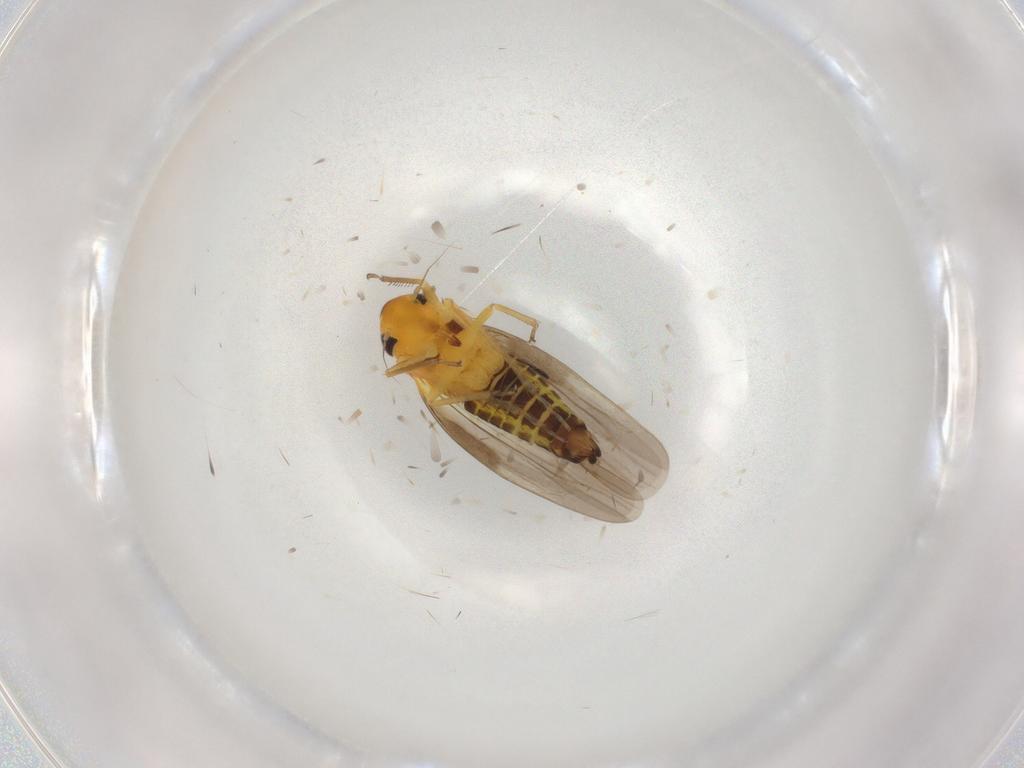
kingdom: Animalia
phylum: Arthropoda
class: Insecta
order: Hemiptera
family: Cicadellidae
